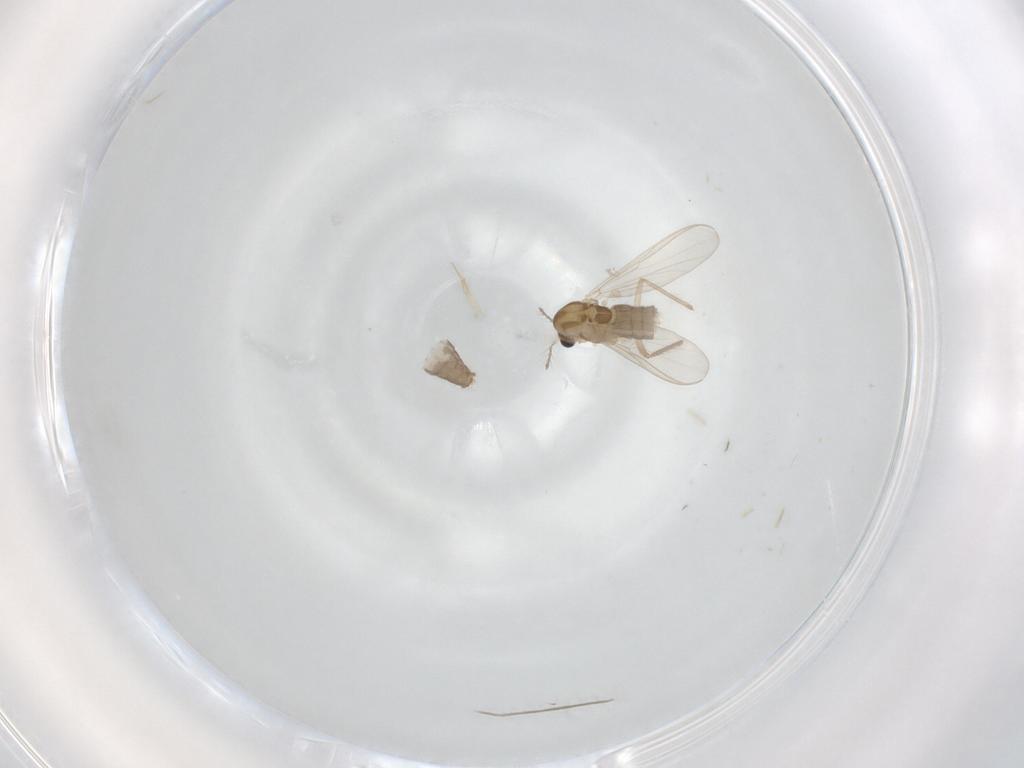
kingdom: Animalia
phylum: Arthropoda
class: Insecta
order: Diptera
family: Chironomidae
